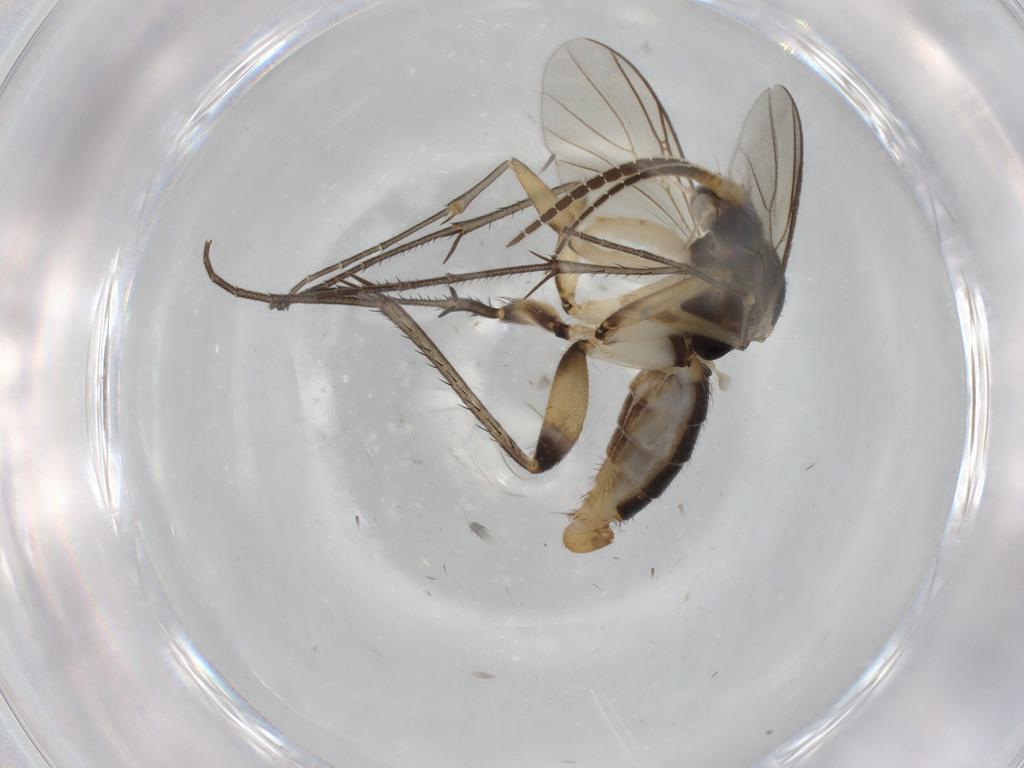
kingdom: Animalia
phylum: Arthropoda
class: Insecta
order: Diptera
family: Mycetophilidae
